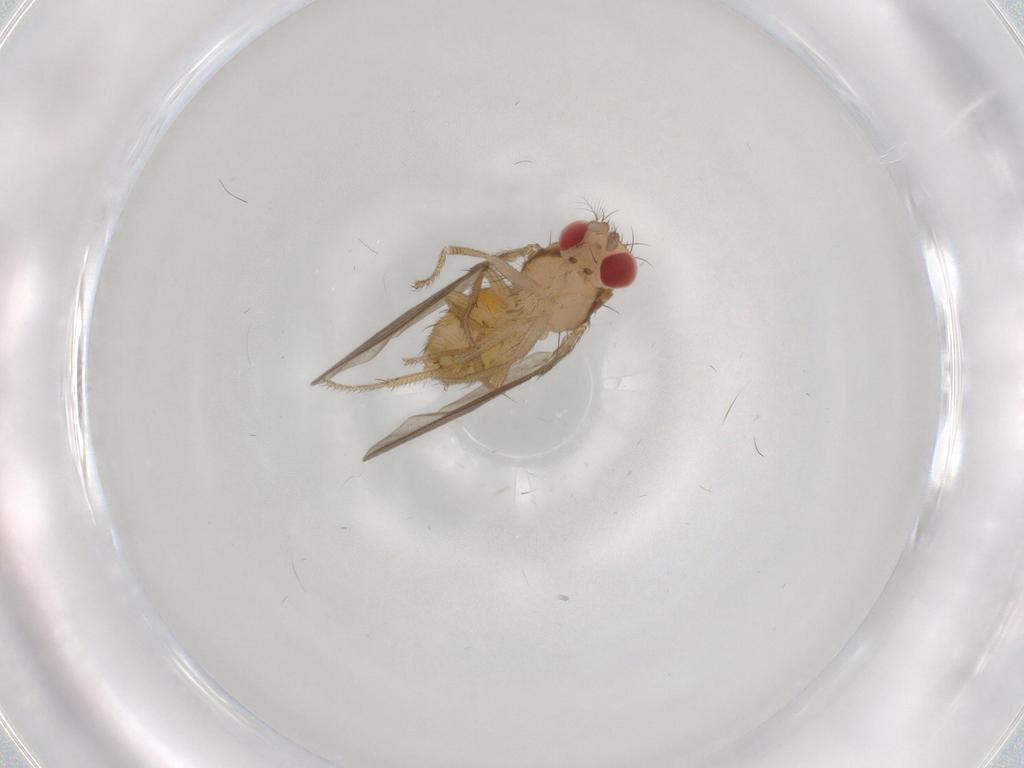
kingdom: Animalia
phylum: Arthropoda
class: Insecta
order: Diptera
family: Drosophilidae
